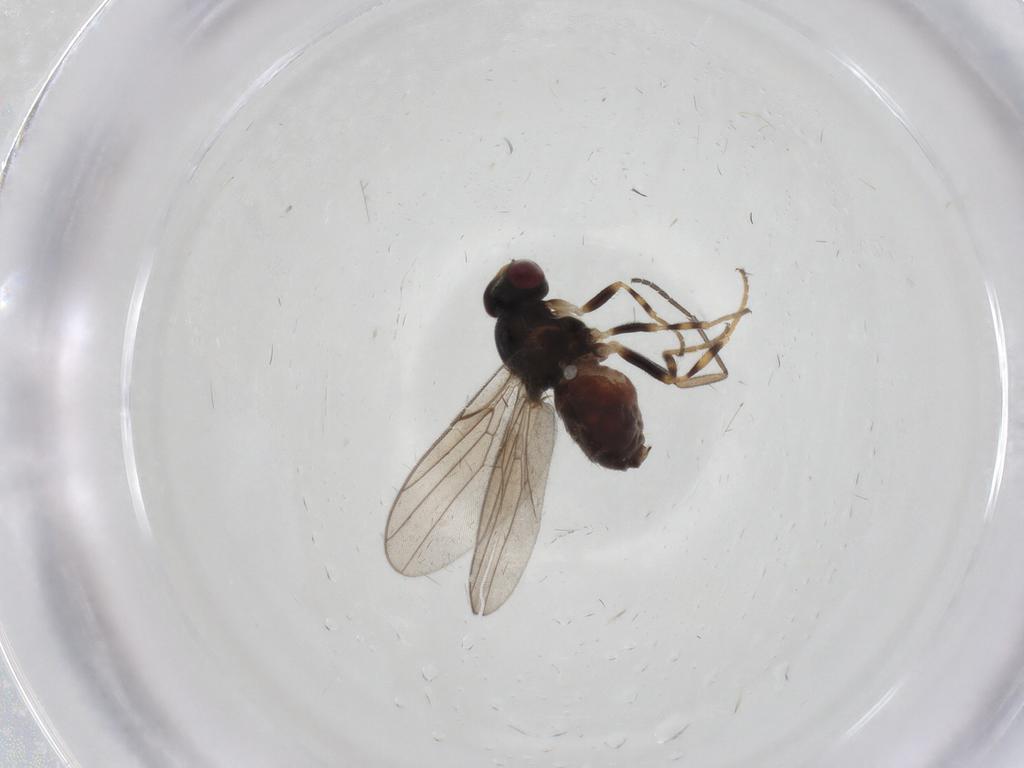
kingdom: Animalia
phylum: Arthropoda
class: Insecta
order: Diptera
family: Chloropidae
